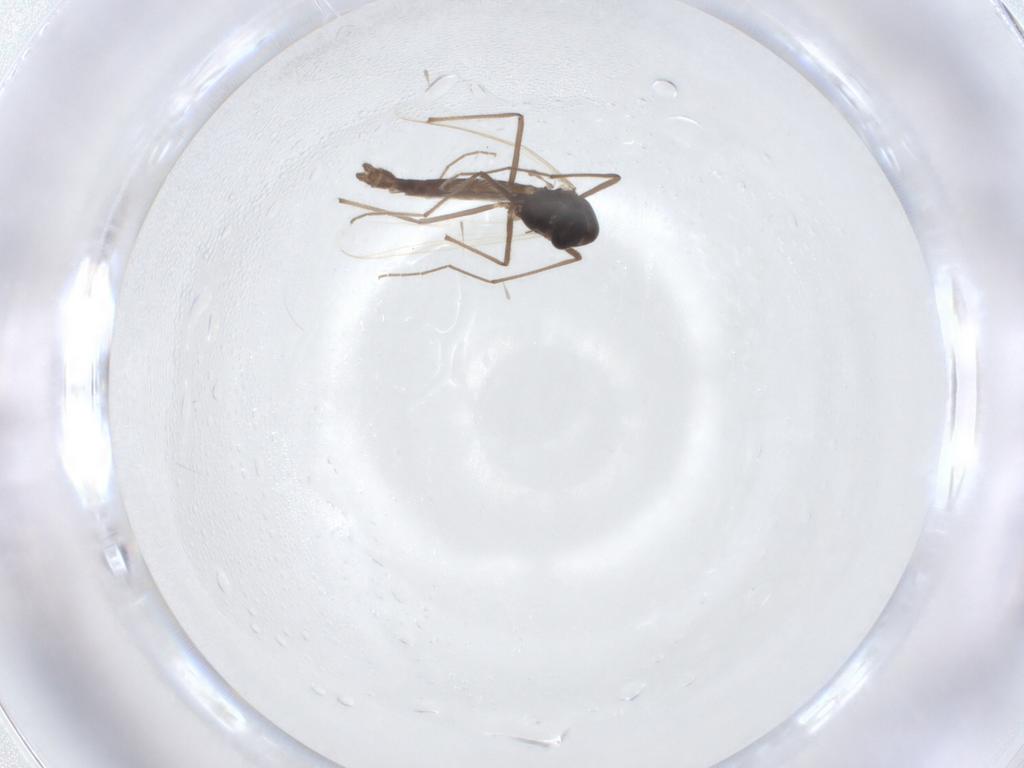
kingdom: Animalia
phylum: Arthropoda
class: Insecta
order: Diptera
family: Chironomidae
